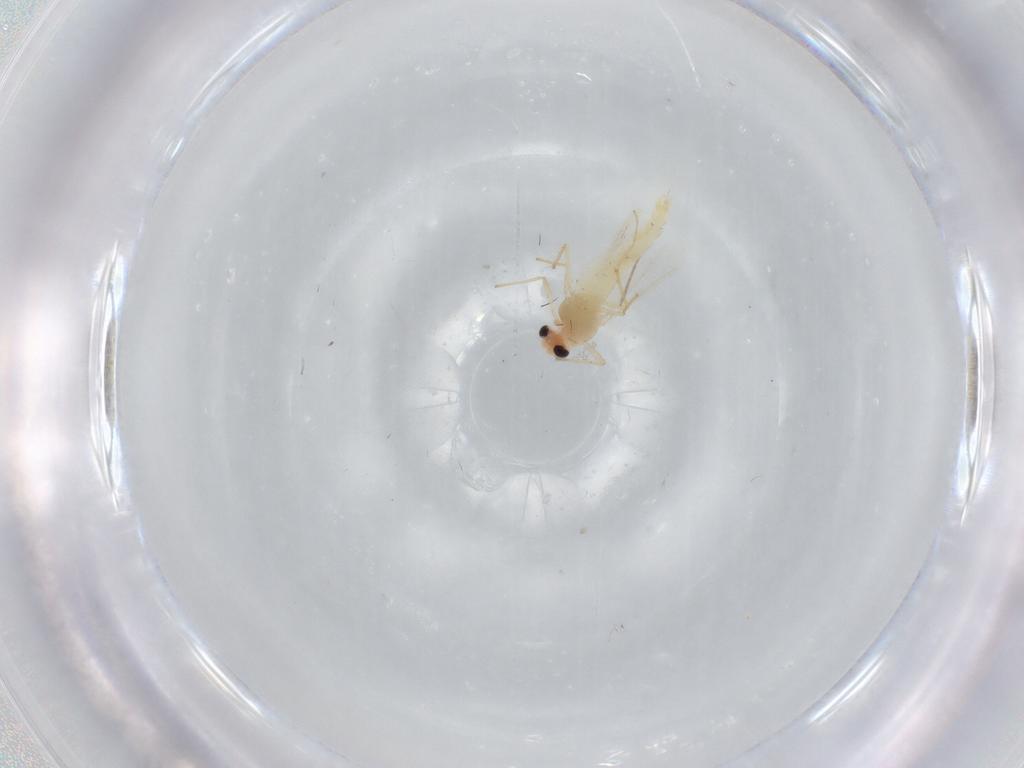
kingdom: Animalia
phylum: Arthropoda
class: Insecta
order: Diptera
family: Chironomidae
